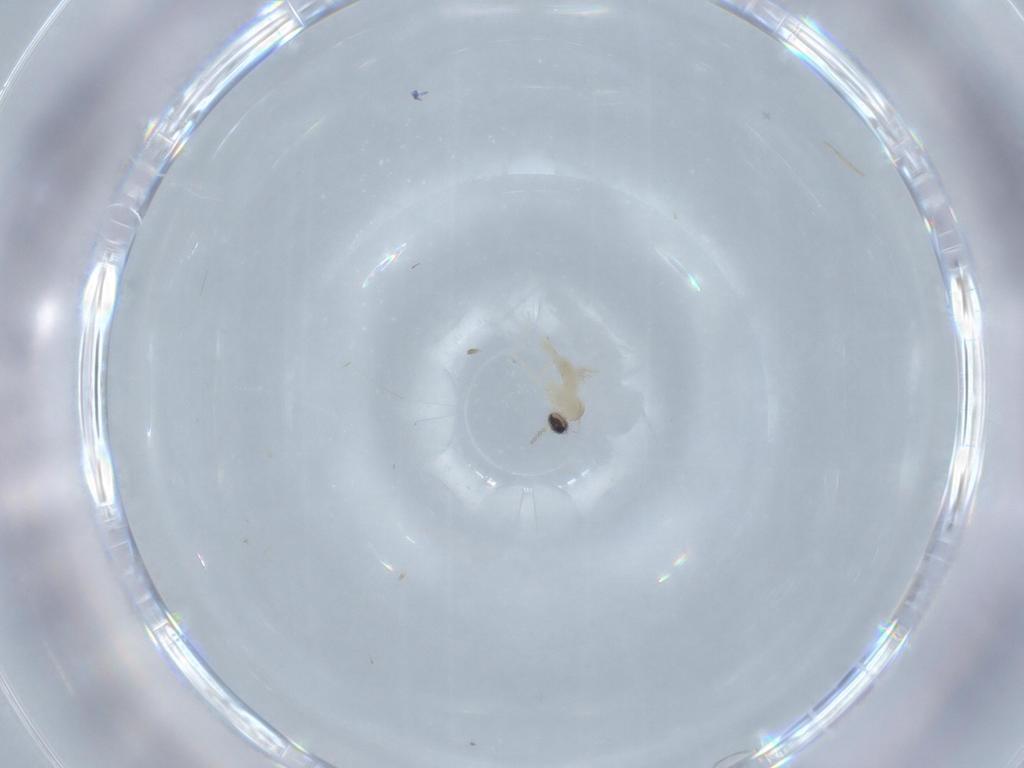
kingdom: Animalia
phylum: Arthropoda
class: Insecta
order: Diptera
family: Cecidomyiidae
